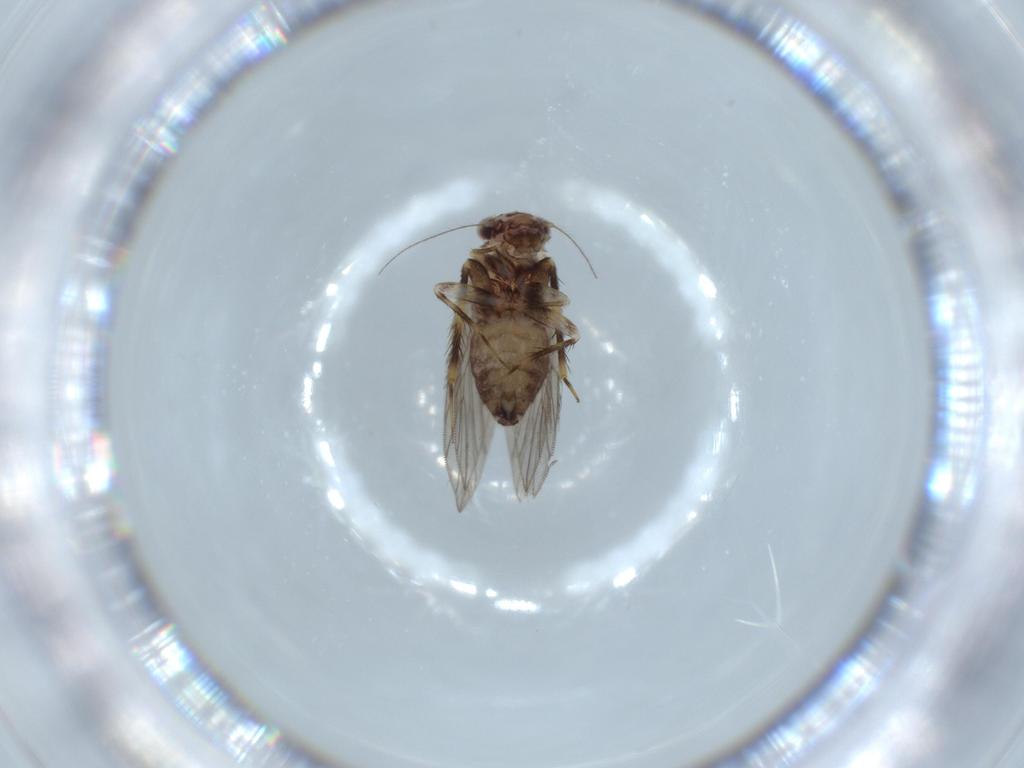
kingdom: Animalia
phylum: Arthropoda
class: Insecta
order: Psocodea
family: Lepidopsocidae
